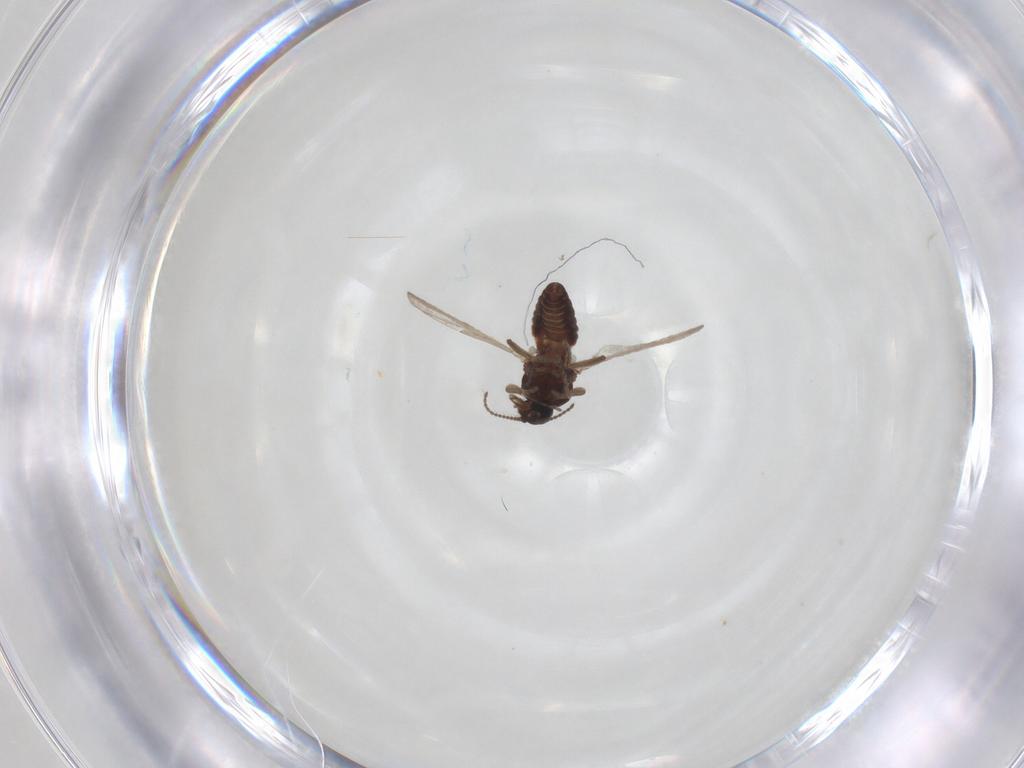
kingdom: Animalia
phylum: Arthropoda
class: Insecta
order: Diptera
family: Ceratopogonidae
